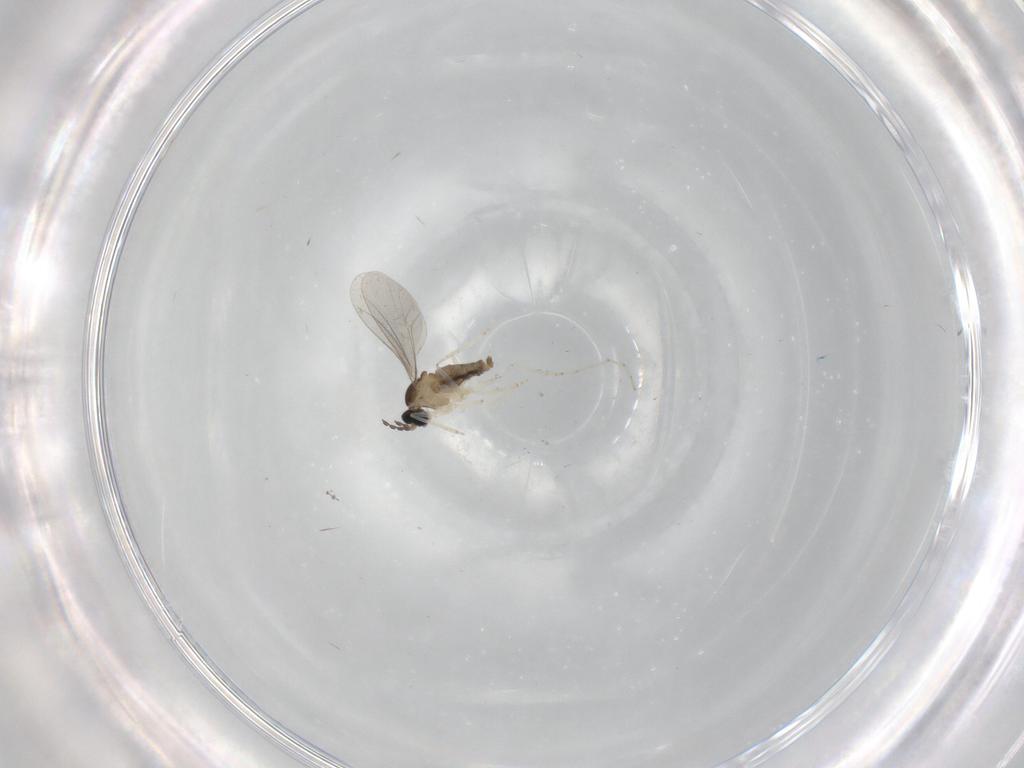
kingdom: Animalia
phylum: Arthropoda
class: Insecta
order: Diptera
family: Cecidomyiidae
